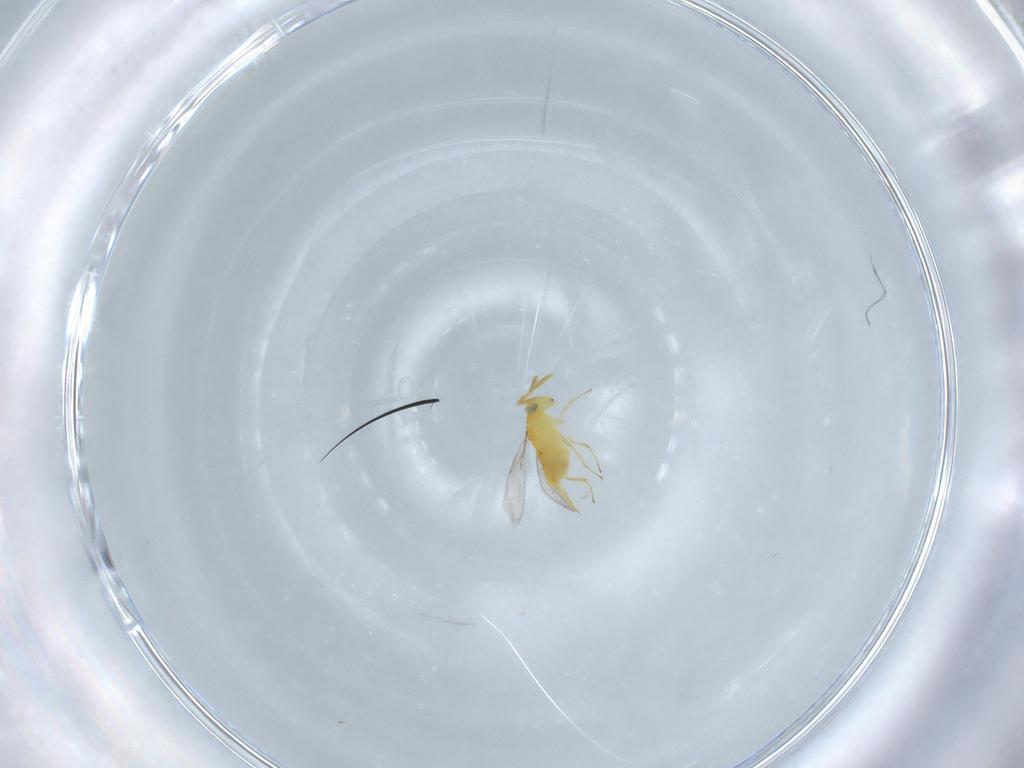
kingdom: Animalia
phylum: Arthropoda
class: Insecta
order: Hymenoptera
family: Braconidae
